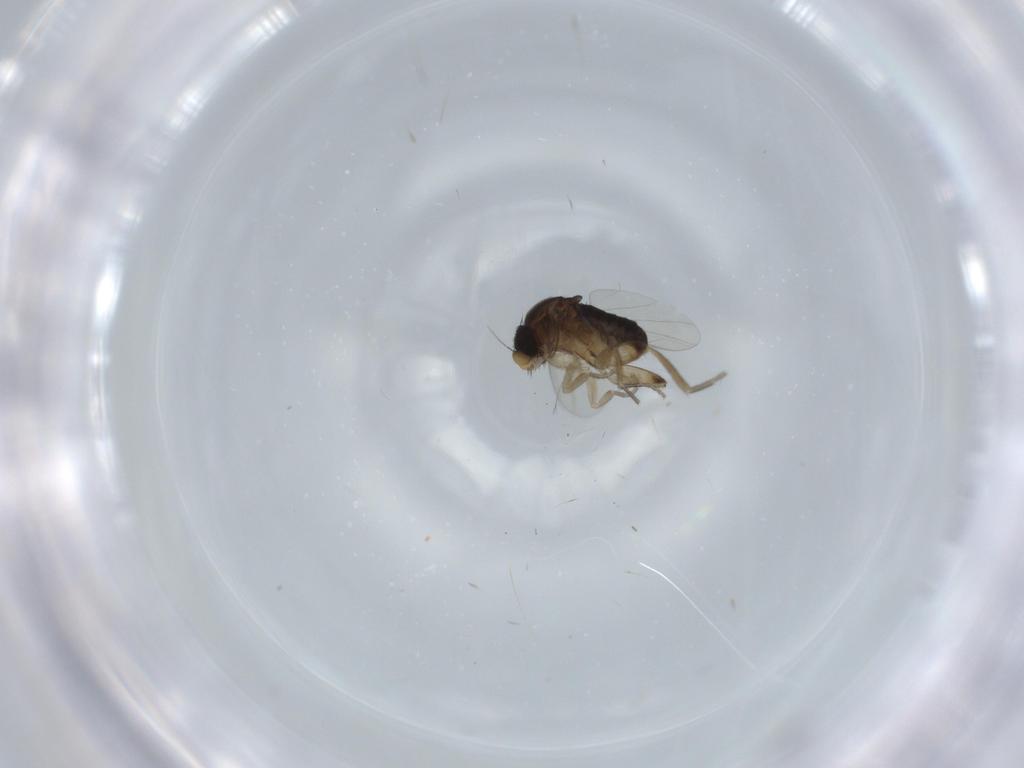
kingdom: Animalia
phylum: Arthropoda
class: Insecta
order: Diptera
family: Phoridae
